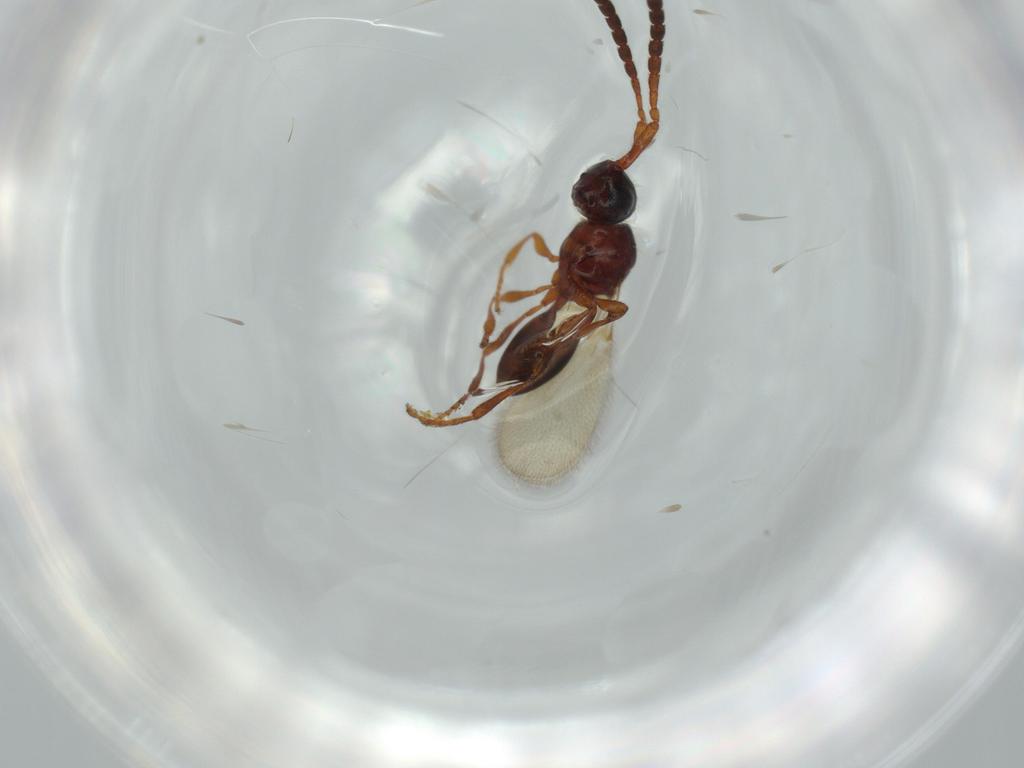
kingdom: Animalia
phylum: Arthropoda
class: Insecta
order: Hymenoptera
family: Diapriidae
